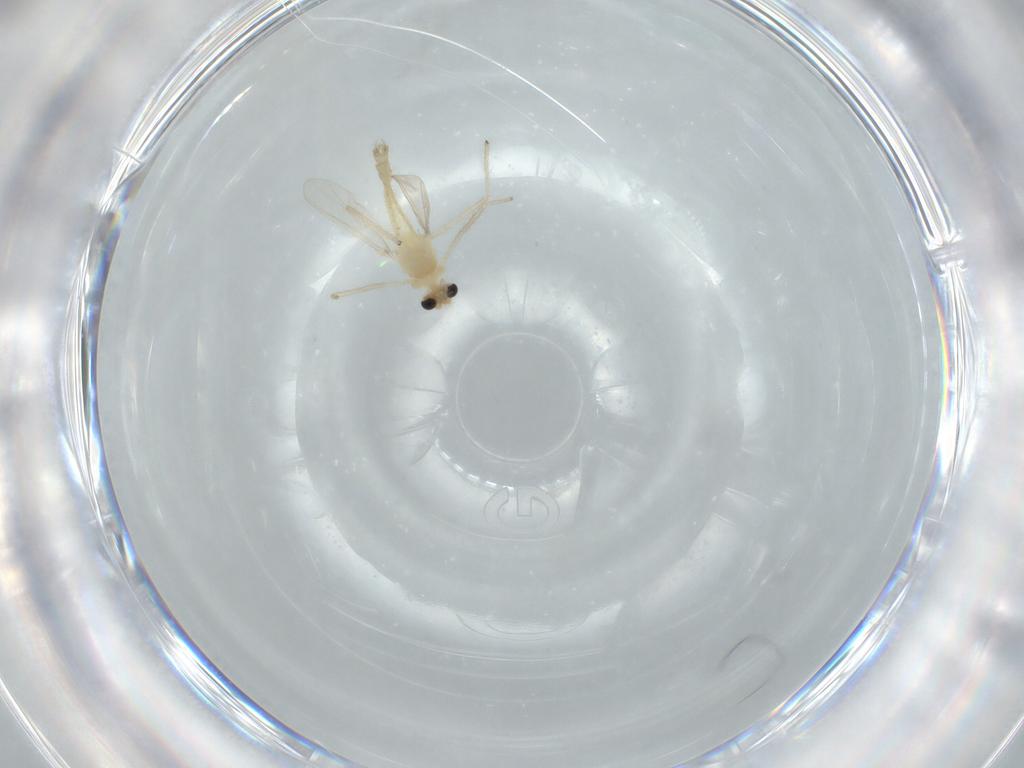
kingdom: Animalia
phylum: Arthropoda
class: Insecta
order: Diptera
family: Chironomidae
